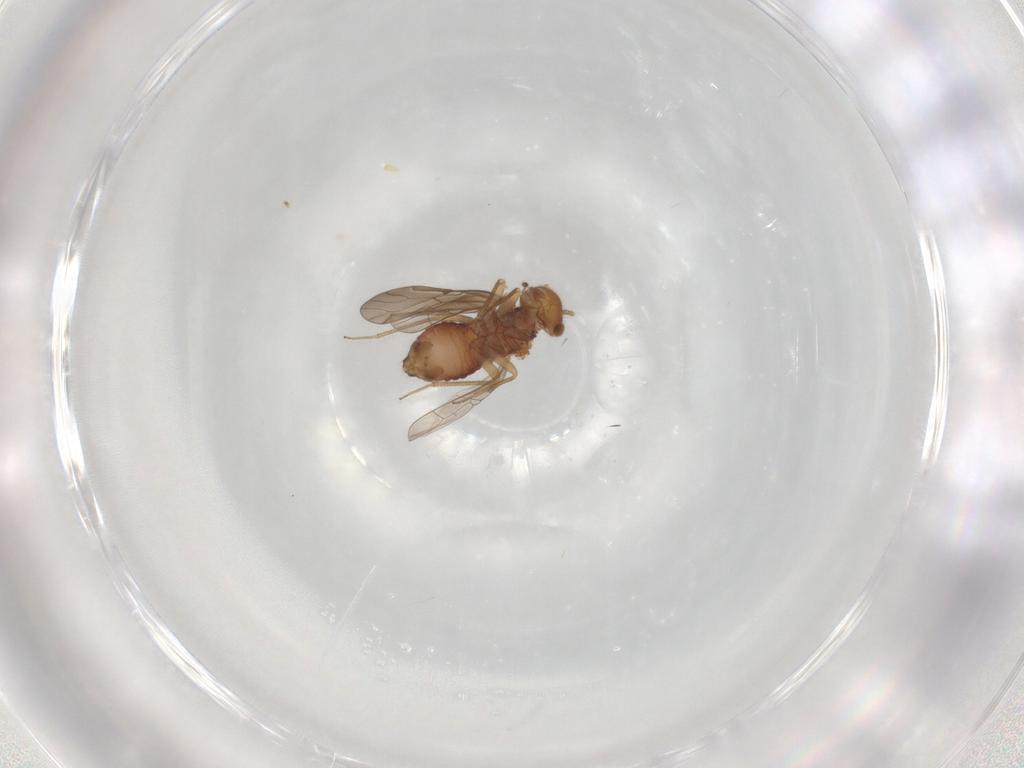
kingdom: Animalia
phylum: Arthropoda
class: Insecta
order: Psocodea
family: Ectopsocidae
